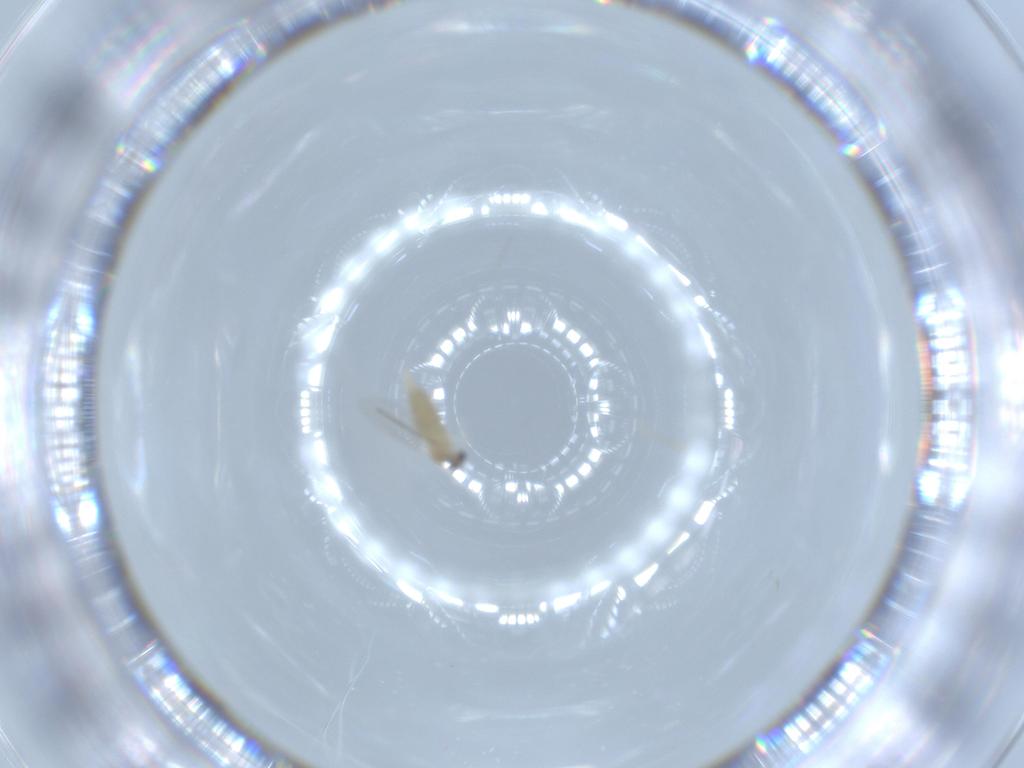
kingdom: Animalia
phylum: Arthropoda
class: Insecta
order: Diptera
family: Cecidomyiidae
